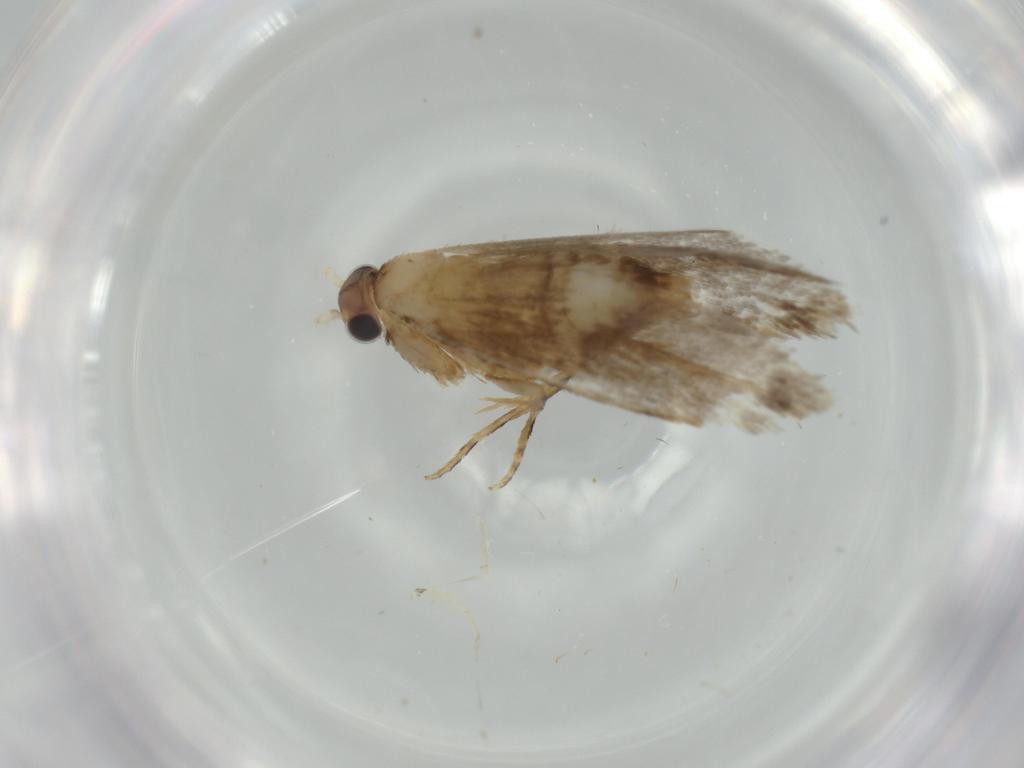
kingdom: Animalia
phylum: Arthropoda
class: Insecta
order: Lepidoptera
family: Tineidae
